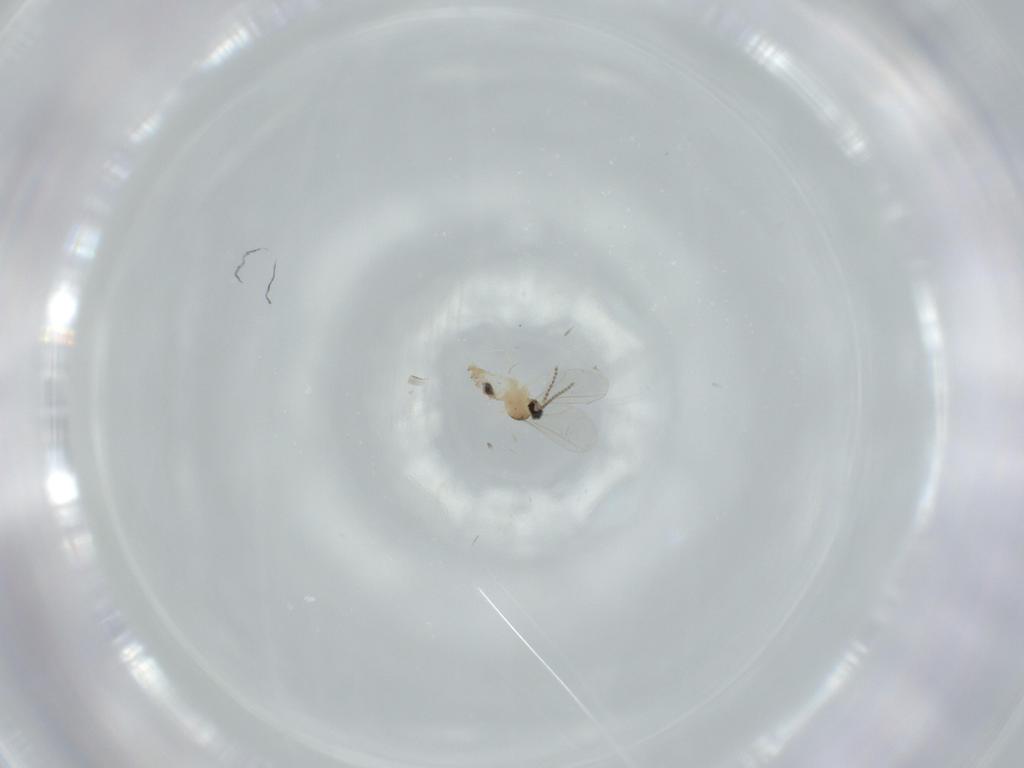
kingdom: Animalia
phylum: Arthropoda
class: Insecta
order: Diptera
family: Cecidomyiidae
